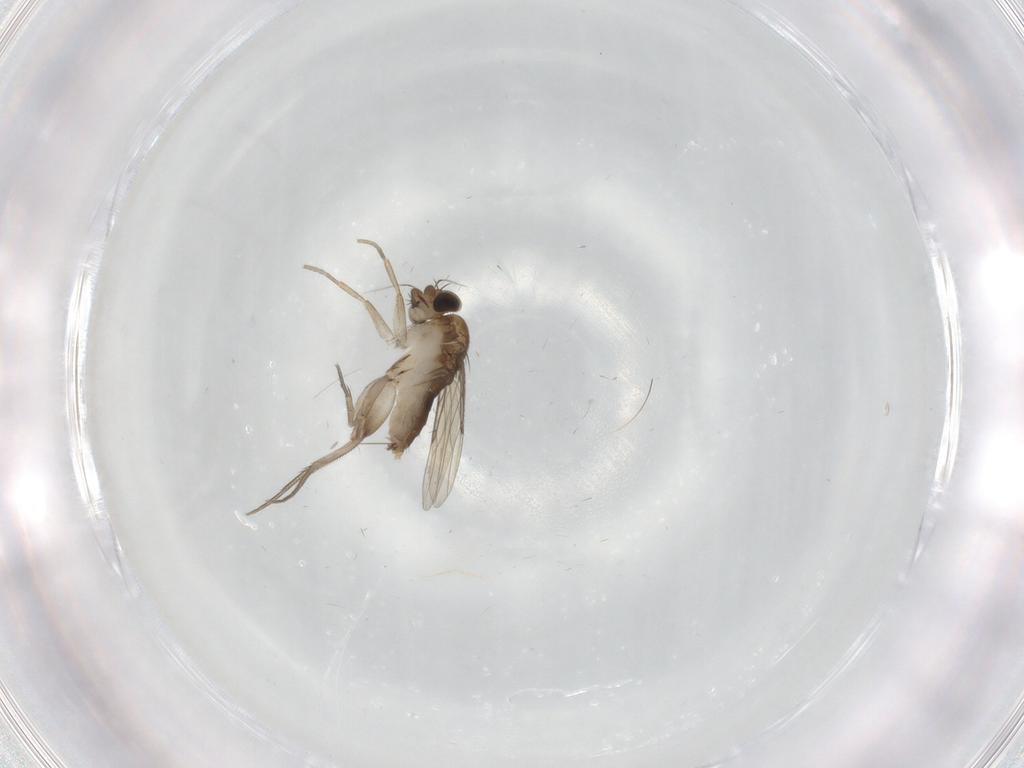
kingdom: Animalia
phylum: Arthropoda
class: Insecta
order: Diptera
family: Phoridae
